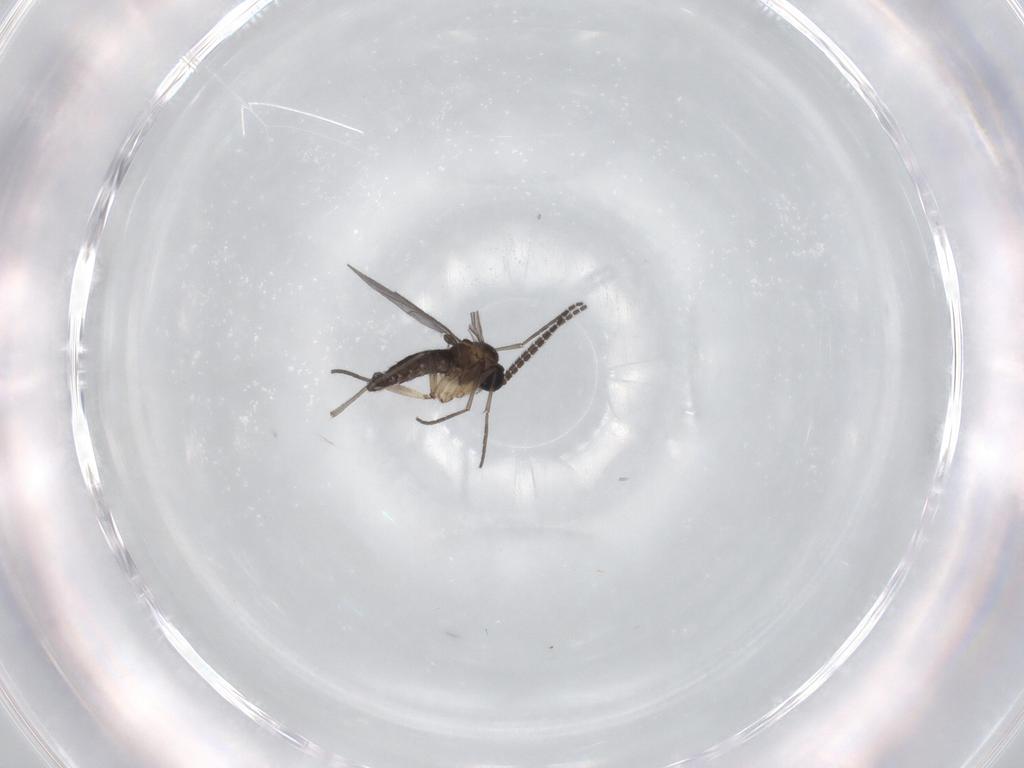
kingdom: Animalia
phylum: Arthropoda
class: Insecta
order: Diptera
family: Sciaridae
